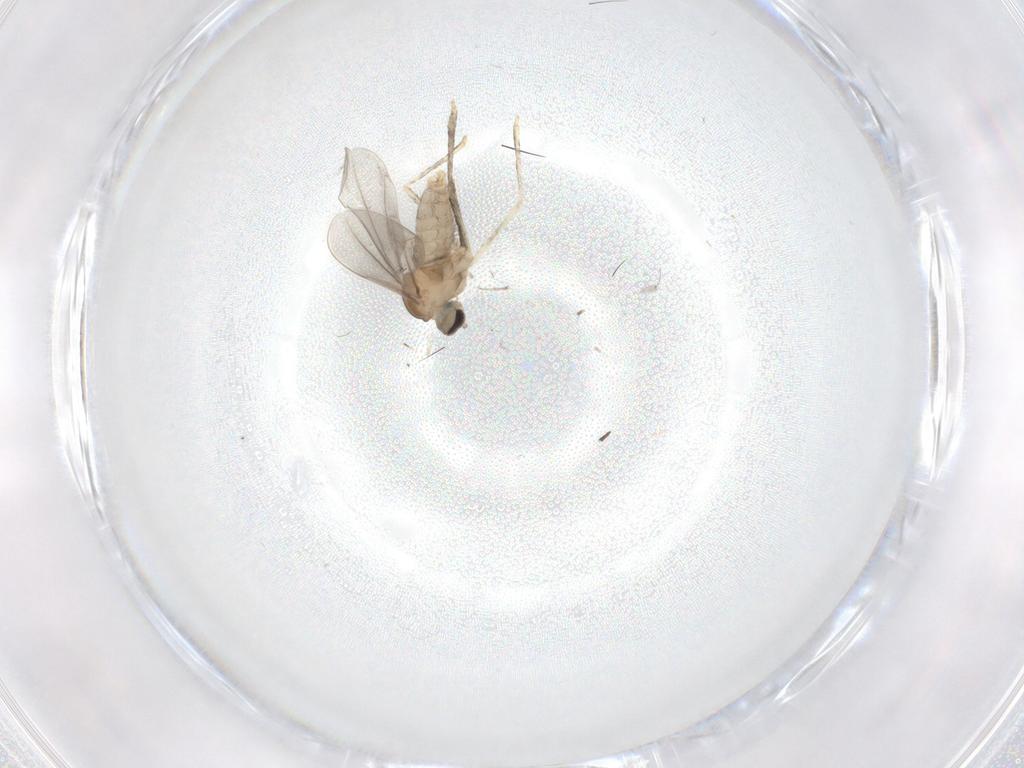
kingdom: Animalia
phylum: Arthropoda
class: Insecta
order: Diptera
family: Cecidomyiidae
